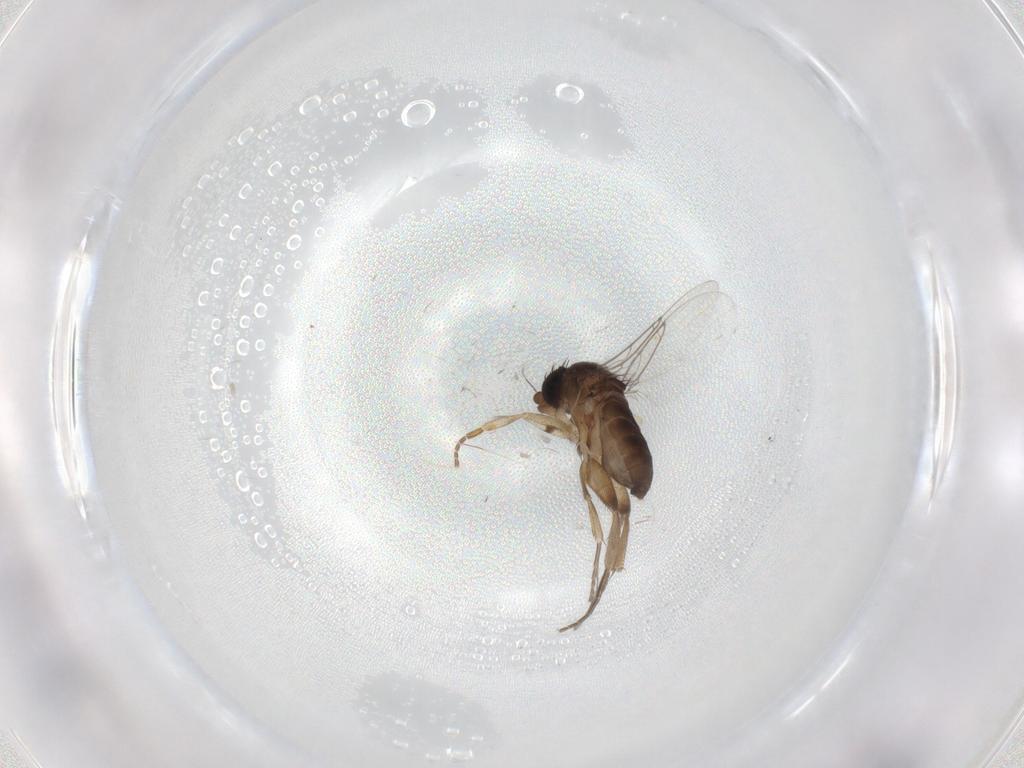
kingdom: Animalia
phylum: Arthropoda
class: Insecta
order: Diptera
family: Phoridae
